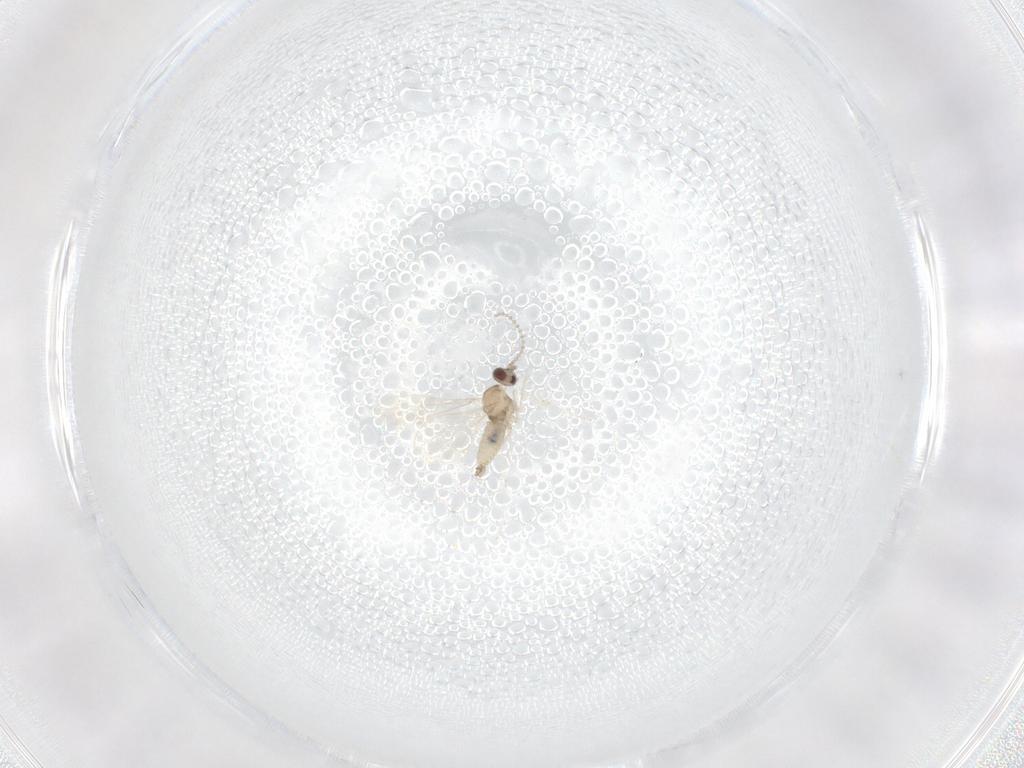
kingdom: Animalia
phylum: Arthropoda
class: Insecta
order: Diptera
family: Cecidomyiidae
